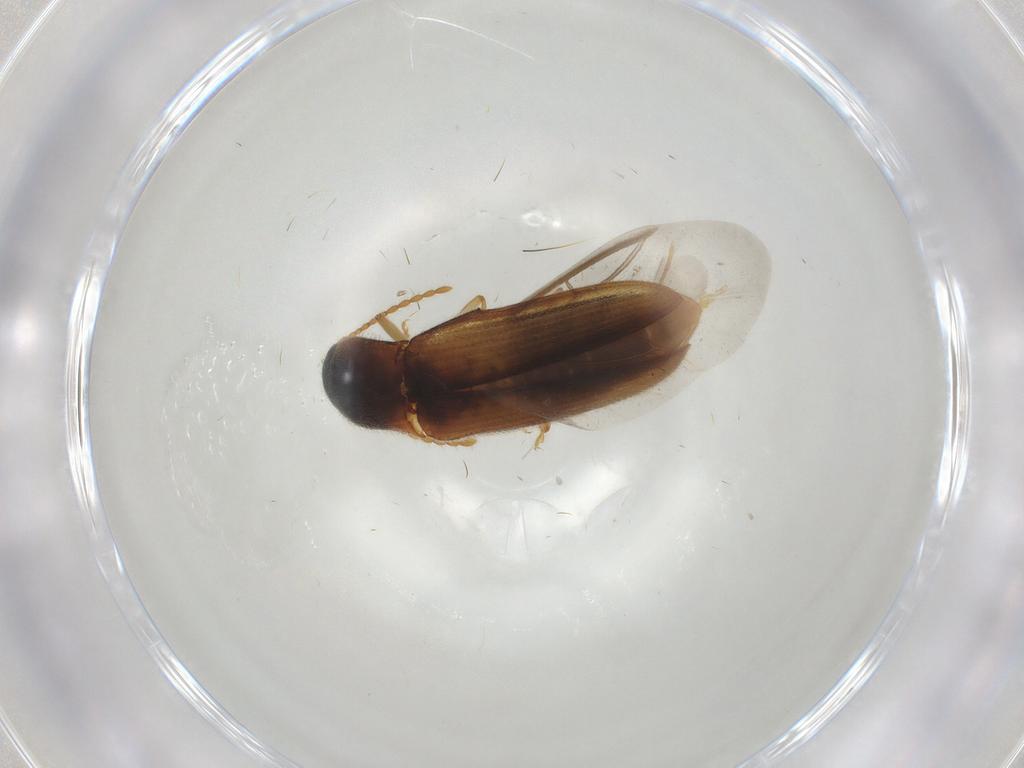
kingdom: Animalia
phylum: Arthropoda
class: Insecta
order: Coleoptera
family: Elateridae
